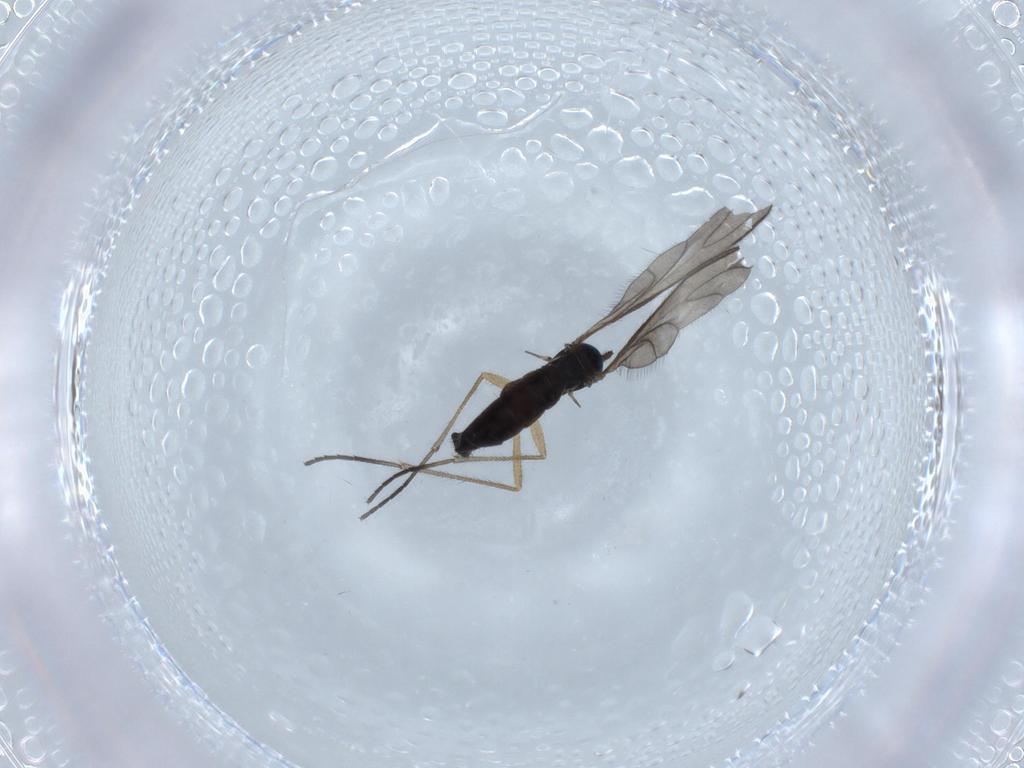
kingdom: Animalia
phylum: Arthropoda
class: Insecta
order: Diptera
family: Sciaridae
